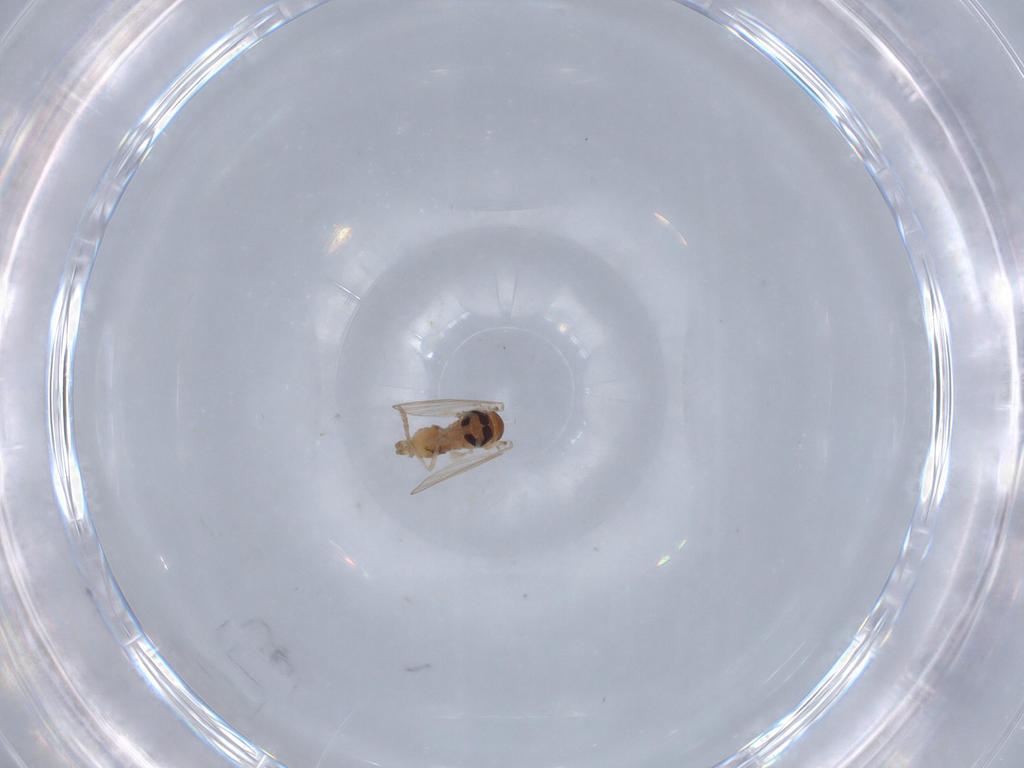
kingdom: Animalia
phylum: Arthropoda
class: Insecta
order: Diptera
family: Psychodidae
